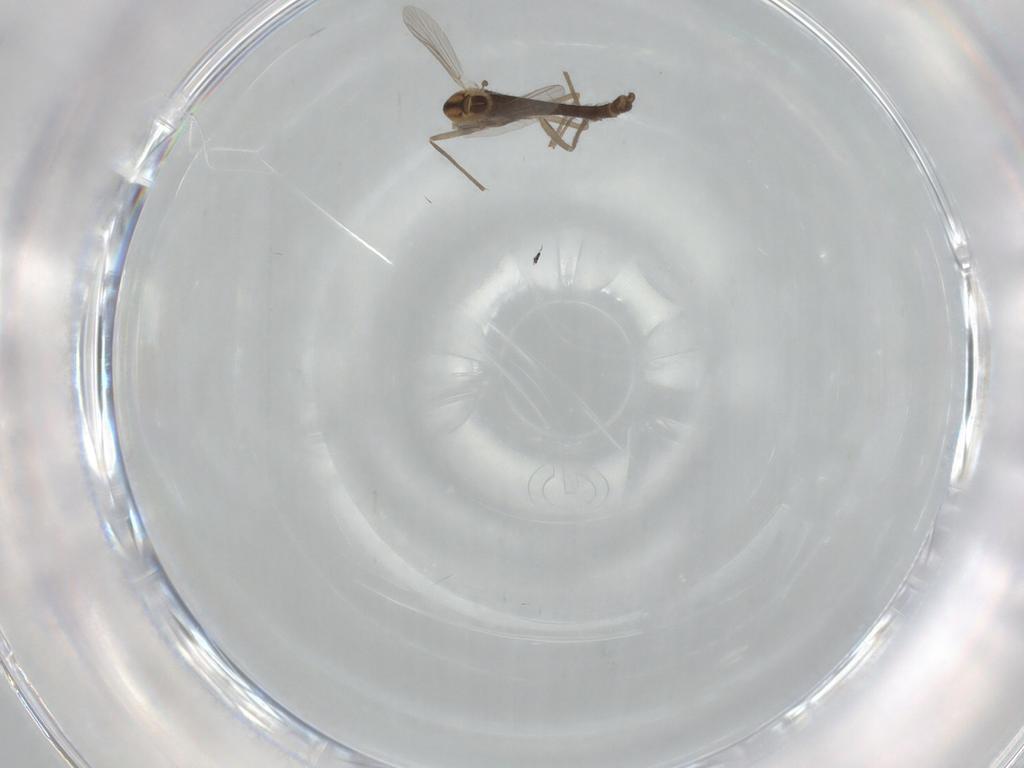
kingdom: Animalia
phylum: Arthropoda
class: Insecta
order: Diptera
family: Chironomidae
